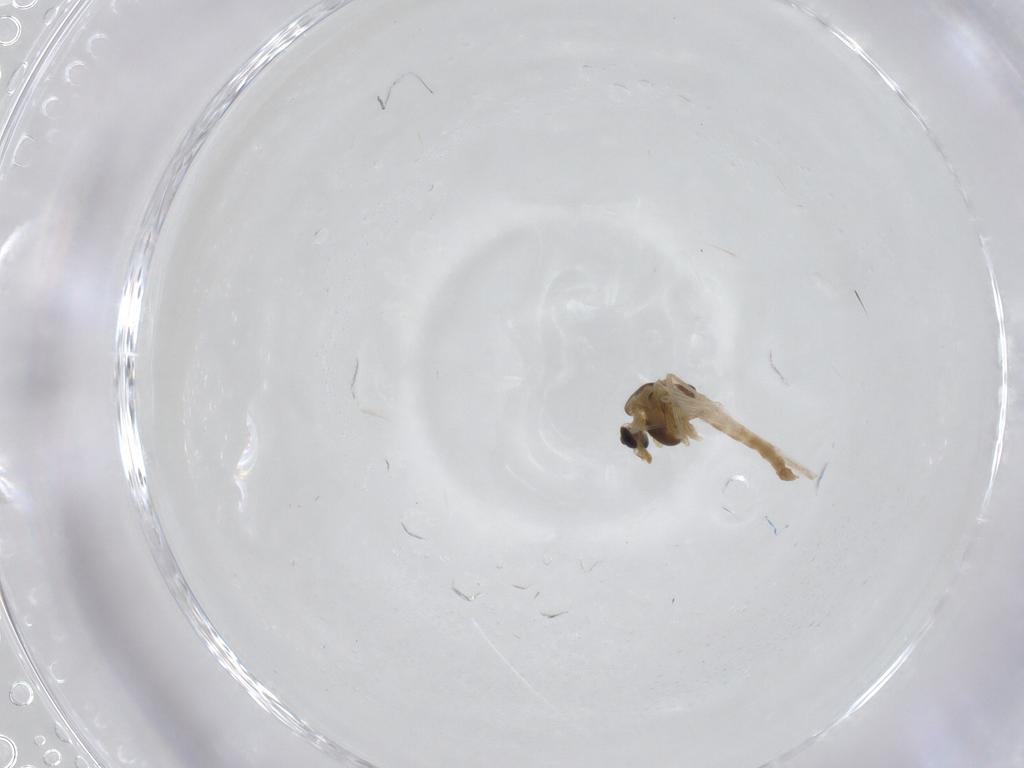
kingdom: Animalia
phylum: Arthropoda
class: Insecta
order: Diptera
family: Chironomidae
